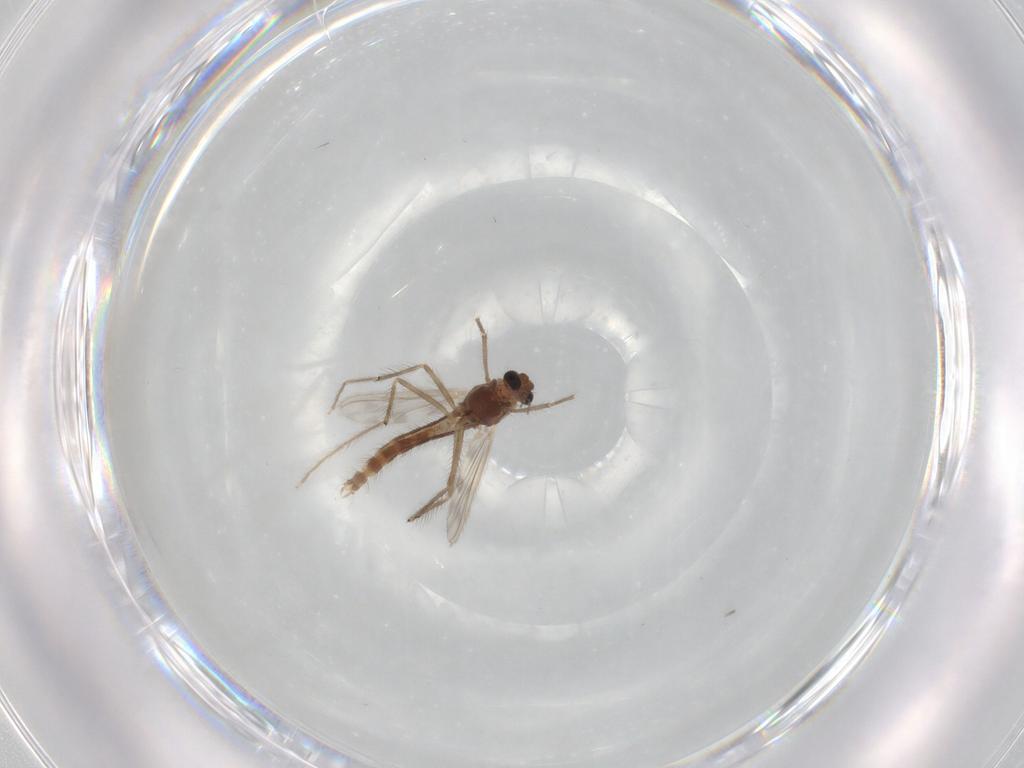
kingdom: Animalia
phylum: Arthropoda
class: Insecta
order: Diptera
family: Chironomidae
